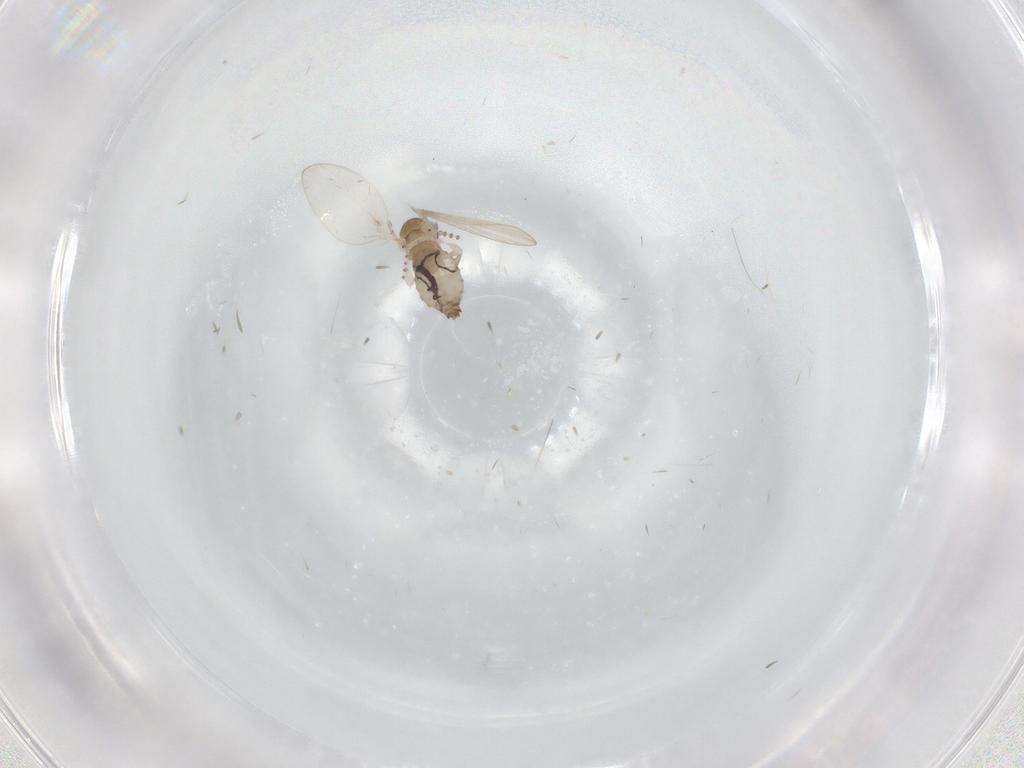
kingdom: Animalia
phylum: Arthropoda
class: Insecta
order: Diptera
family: Psychodidae
